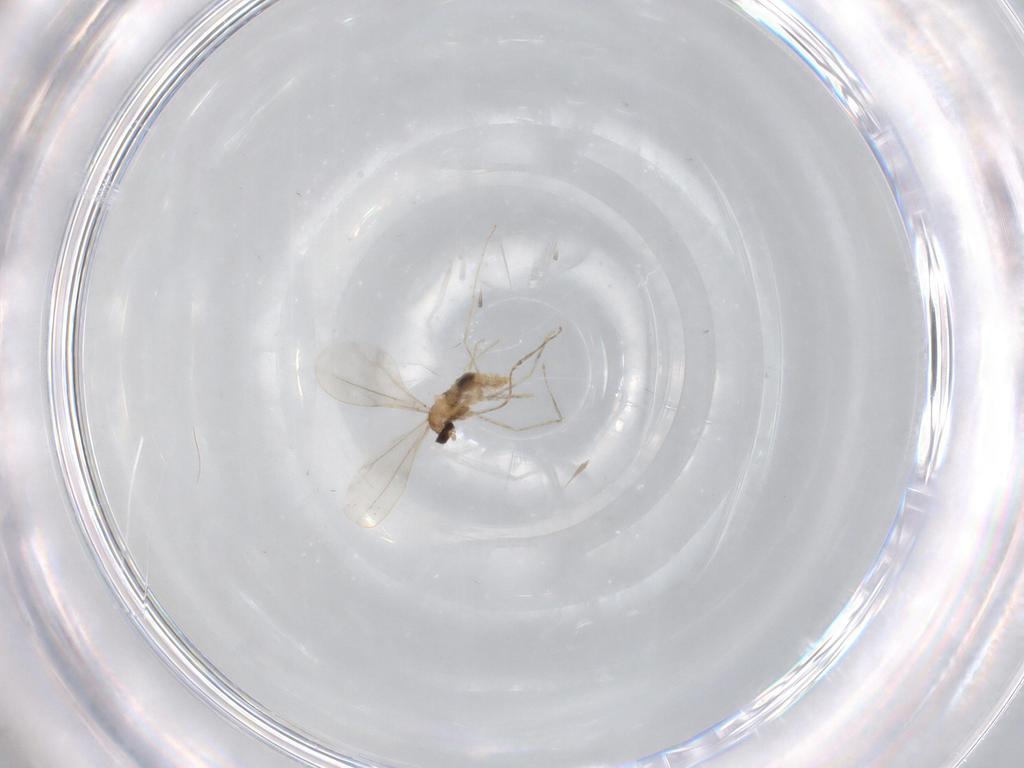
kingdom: Animalia
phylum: Arthropoda
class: Insecta
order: Diptera
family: Cecidomyiidae
